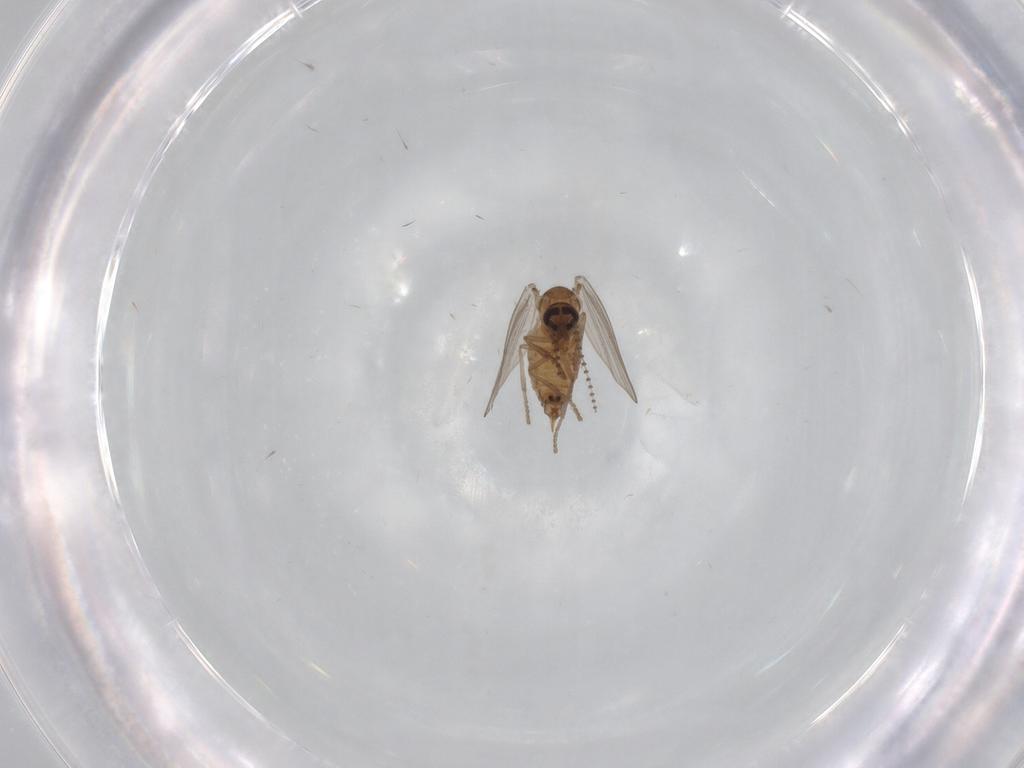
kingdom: Animalia
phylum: Arthropoda
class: Insecta
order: Diptera
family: Psychodidae
